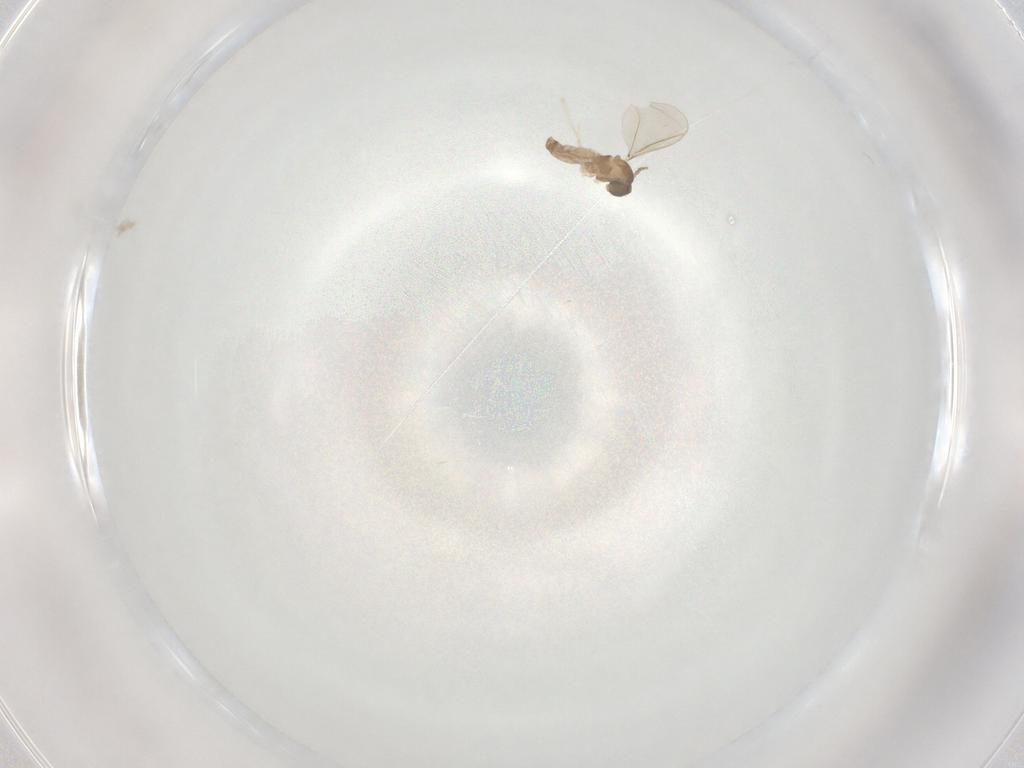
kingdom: Animalia
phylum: Arthropoda
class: Insecta
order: Diptera
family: Cecidomyiidae
